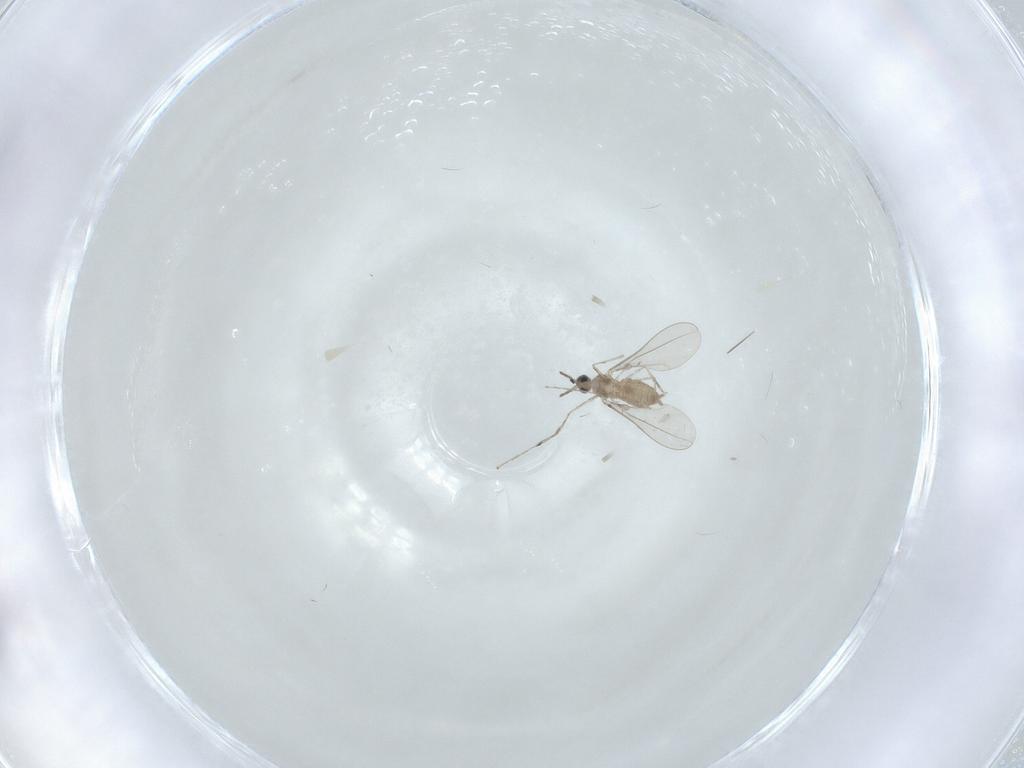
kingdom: Animalia
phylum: Arthropoda
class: Insecta
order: Diptera
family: Cecidomyiidae
